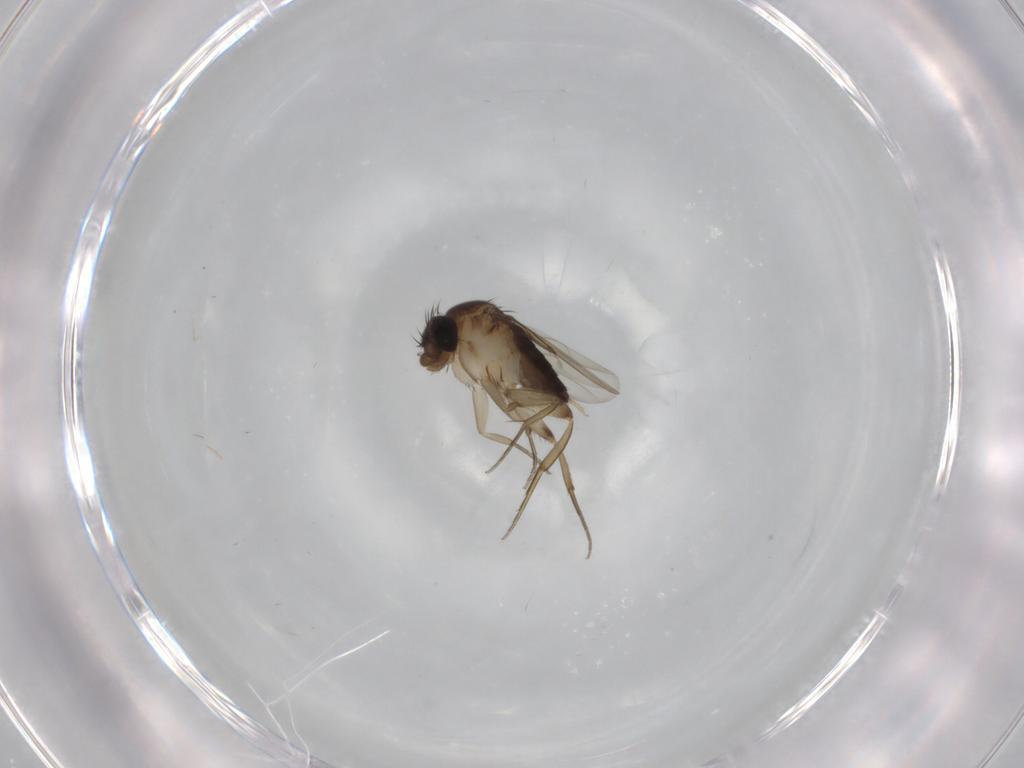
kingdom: Animalia
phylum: Arthropoda
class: Insecta
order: Diptera
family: Phoridae
